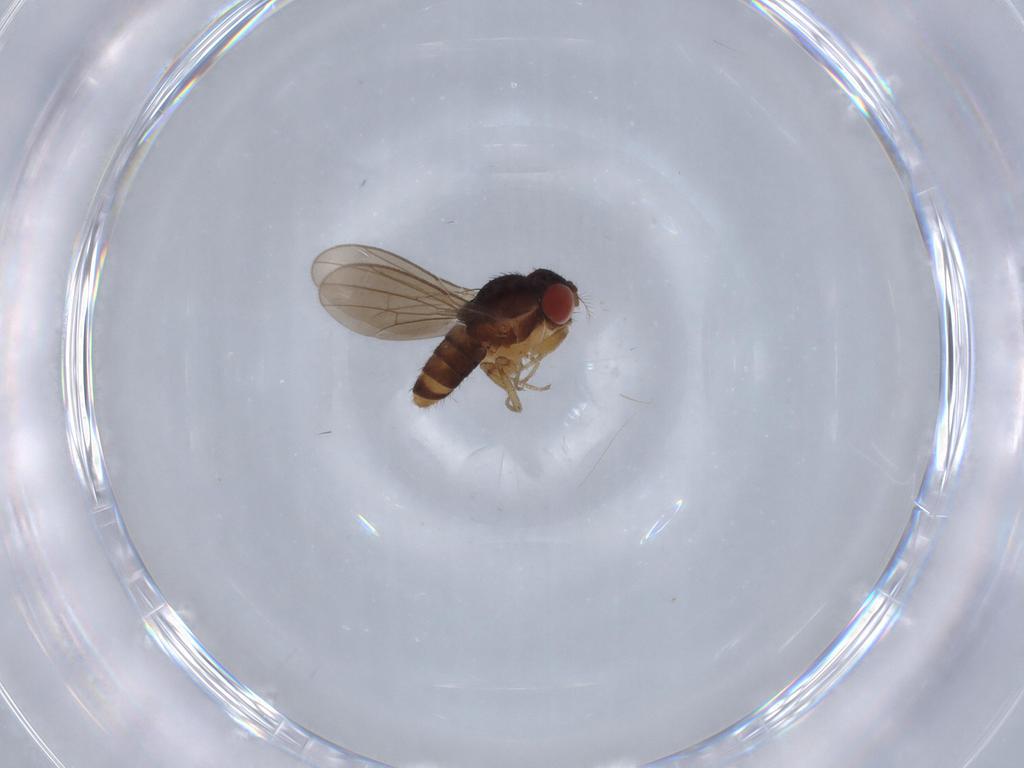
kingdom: Animalia
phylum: Arthropoda
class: Insecta
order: Diptera
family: Drosophilidae
